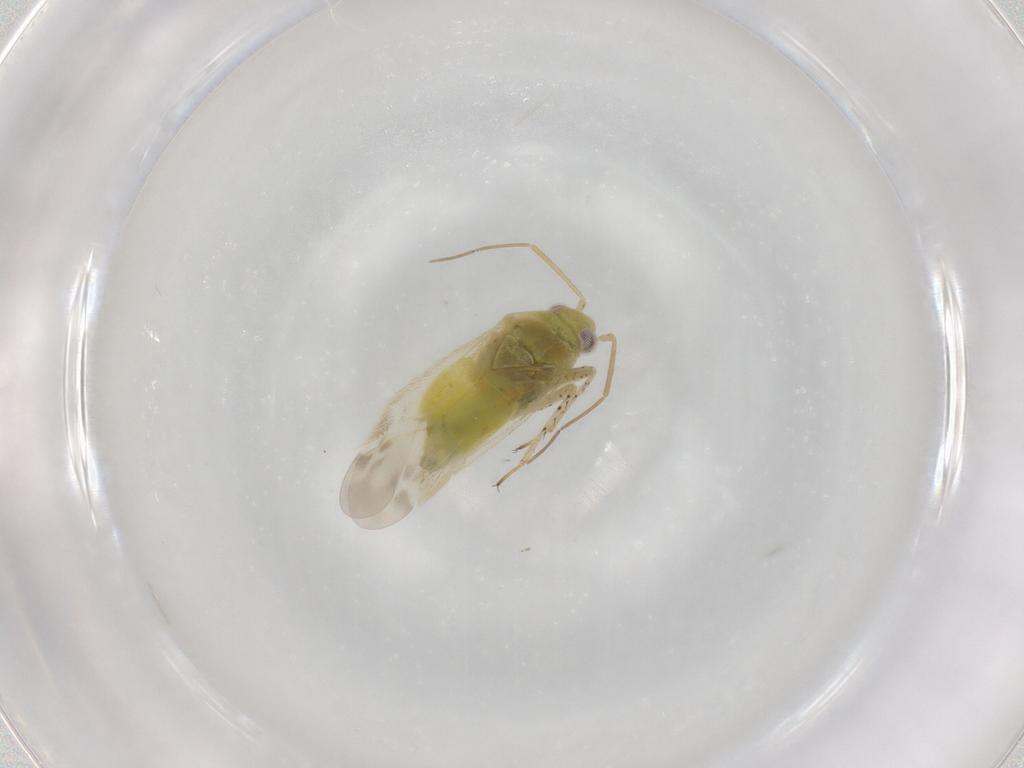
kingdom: Animalia
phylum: Arthropoda
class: Insecta
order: Hemiptera
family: Miridae
